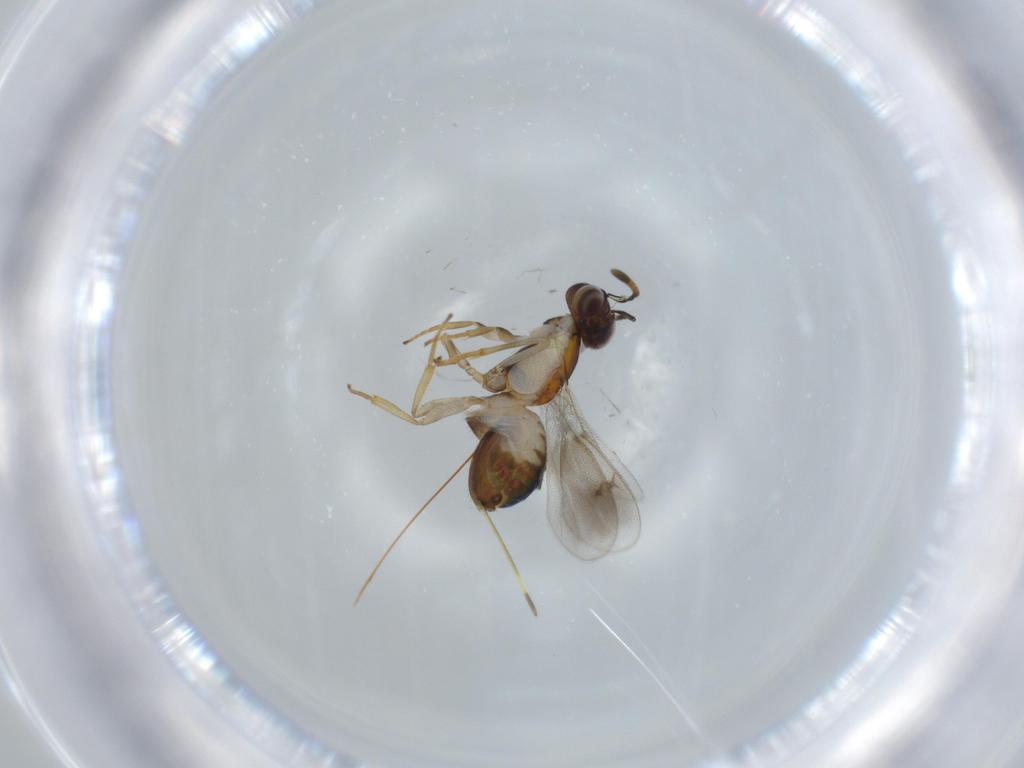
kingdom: Animalia
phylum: Arthropoda
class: Insecta
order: Hymenoptera
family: Pteromalidae
